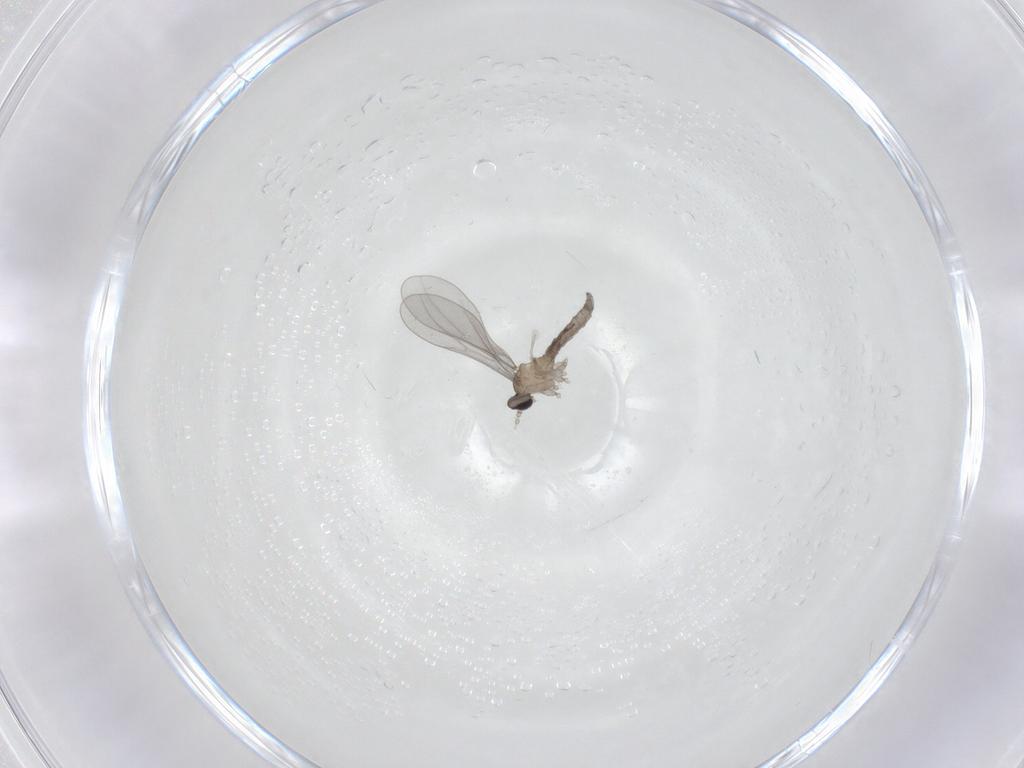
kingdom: Animalia
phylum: Arthropoda
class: Insecta
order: Diptera
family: Cecidomyiidae
